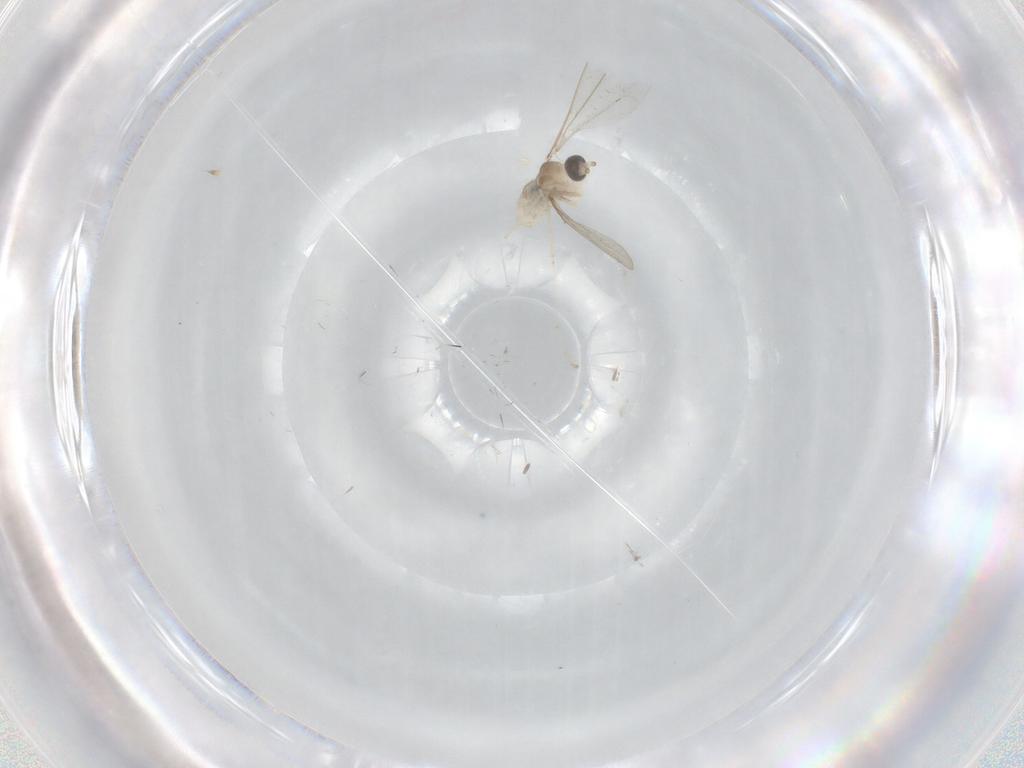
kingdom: Animalia
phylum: Arthropoda
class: Insecta
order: Diptera
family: Cecidomyiidae
